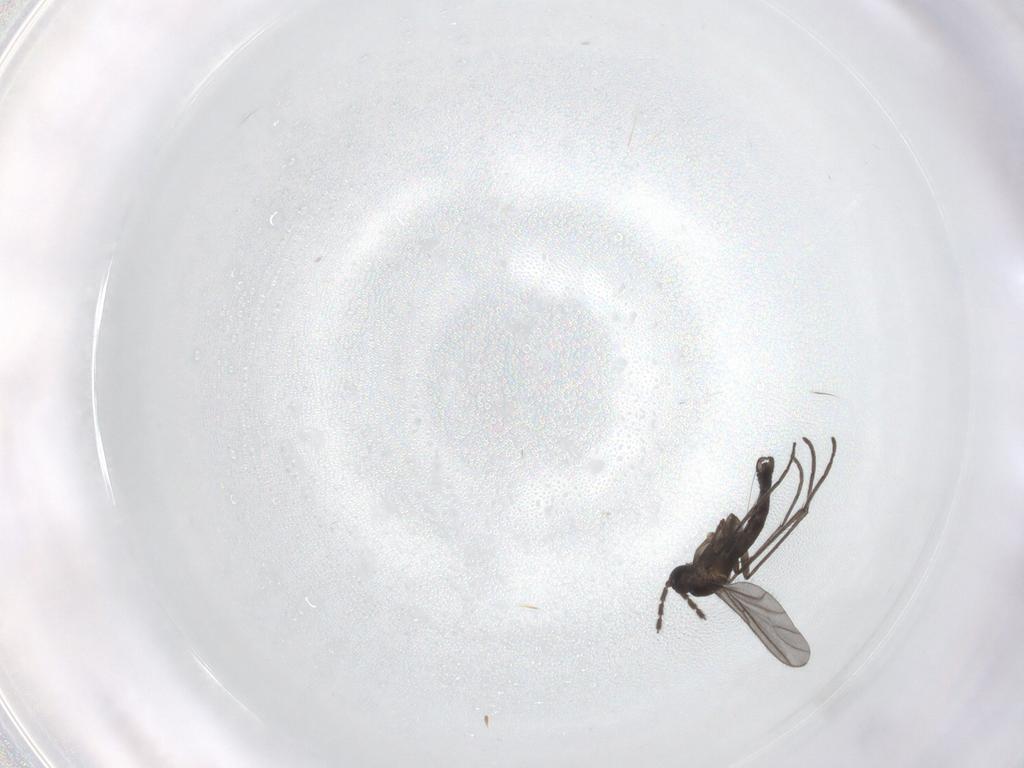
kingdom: Animalia
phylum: Arthropoda
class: Insecta
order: Diptera
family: Sciaridae
